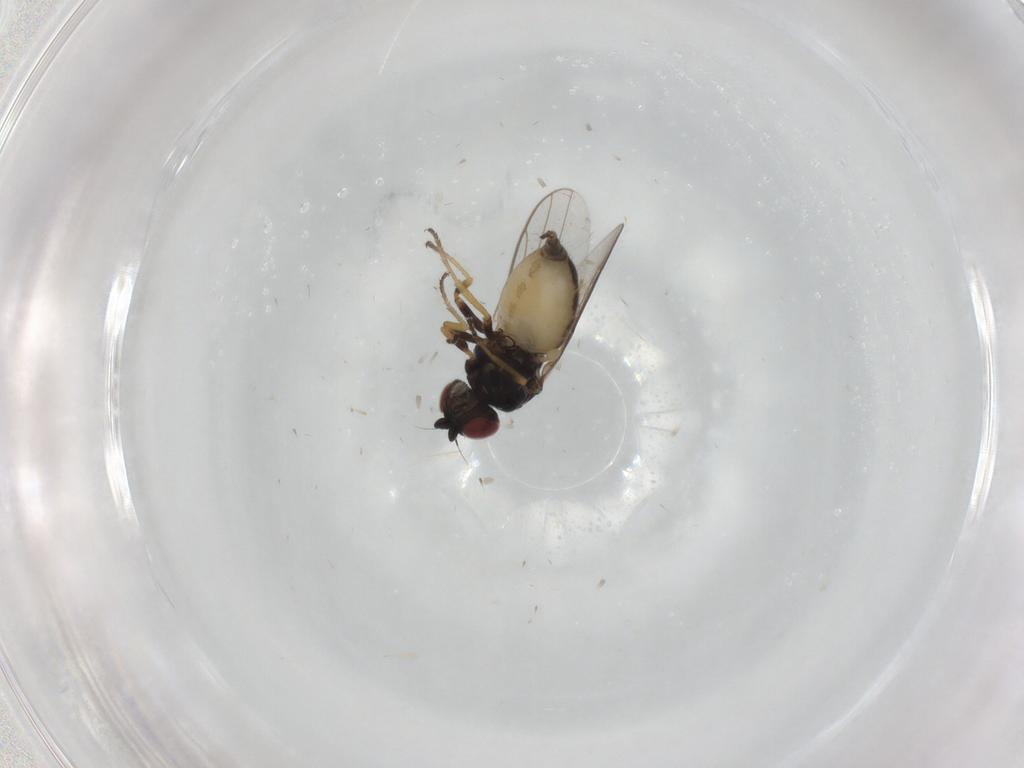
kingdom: Animalia
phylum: Arthropoda
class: Insecta
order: Diptera
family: Chloropidae
